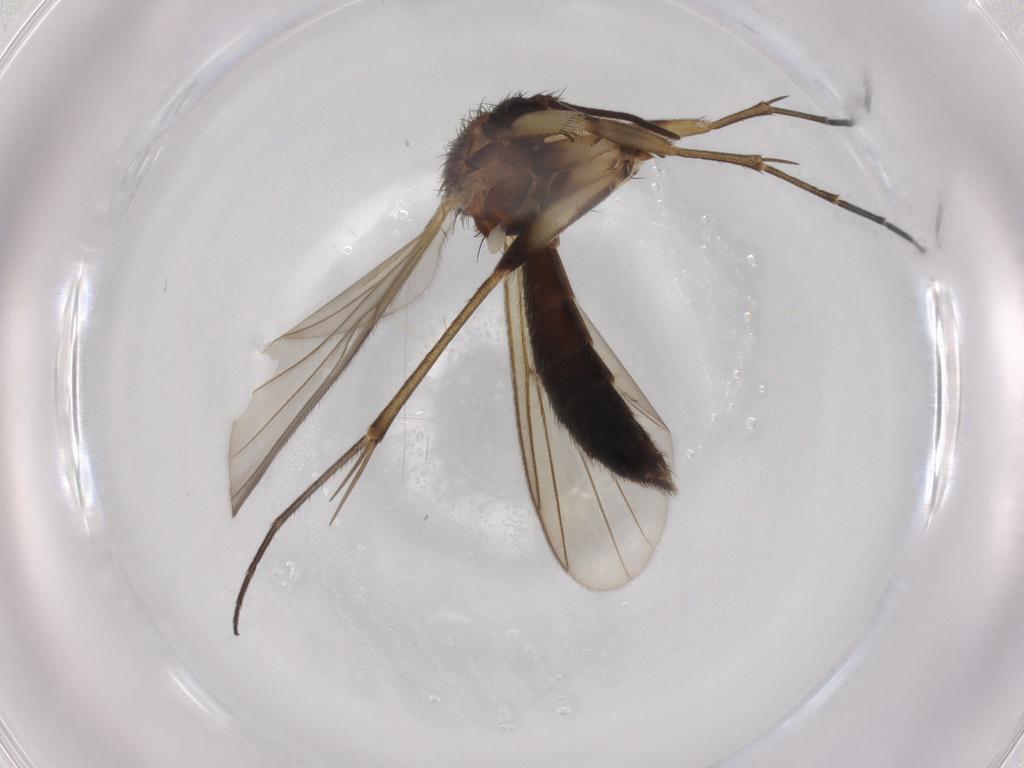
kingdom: Animalia
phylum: Arthropoda
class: Insecta
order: Diptera
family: Mycetophilidae
